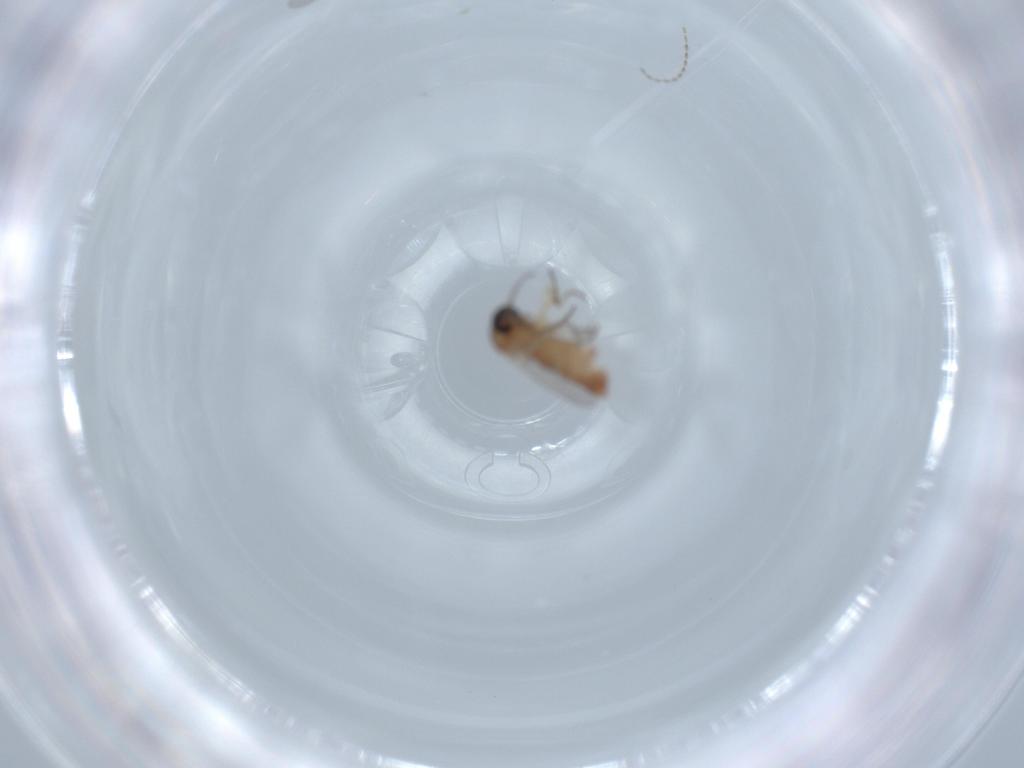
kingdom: Animalia
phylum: Arthropoda
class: Insecta
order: Diptera
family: Ceratopogonidae
